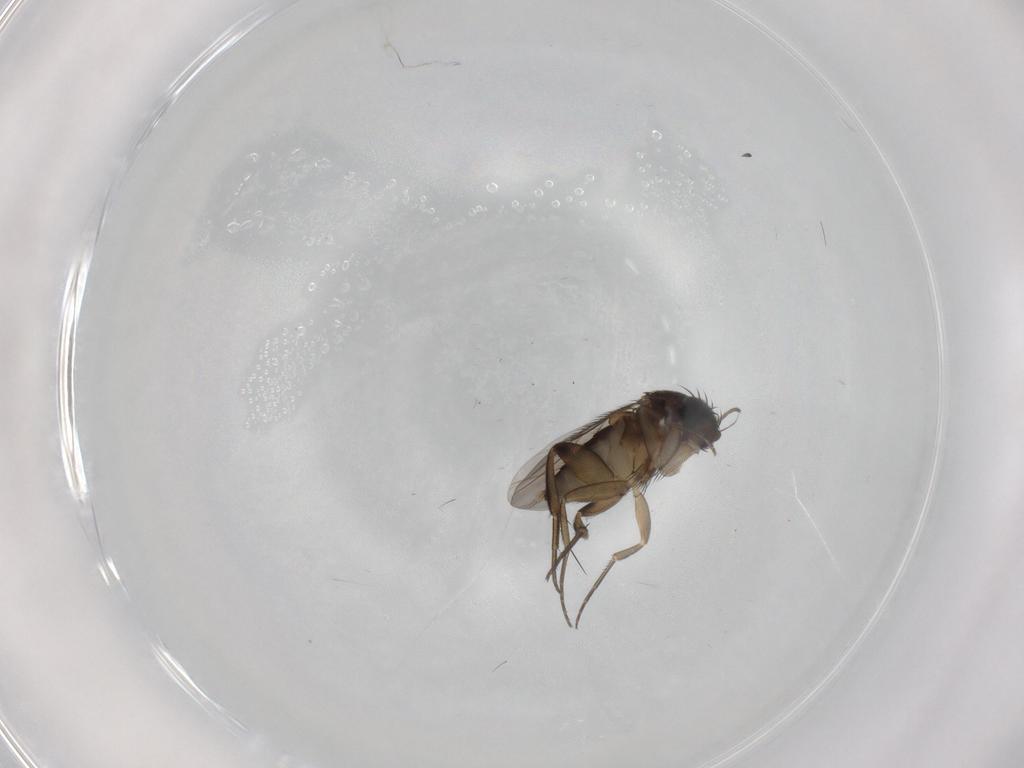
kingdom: Animalia
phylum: Arthropoda
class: Insecta
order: Diptera
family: Phoridae
